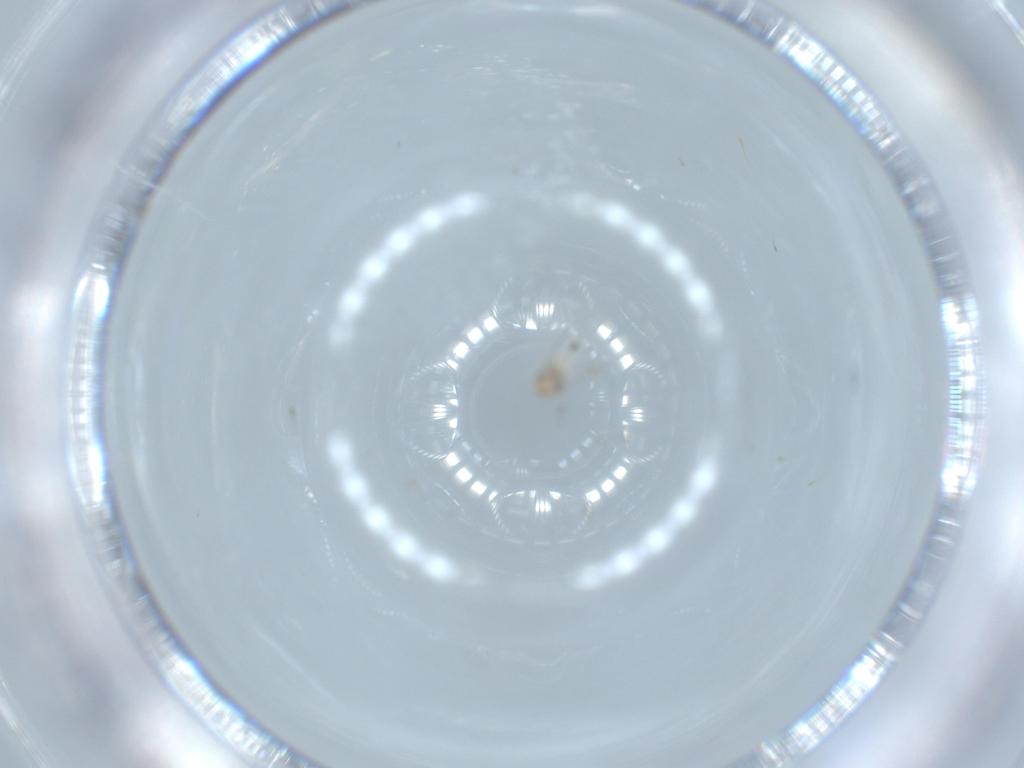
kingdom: Animalia
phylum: Arthropoda
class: Insecta
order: Psocodea
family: Lepidopsocidae
